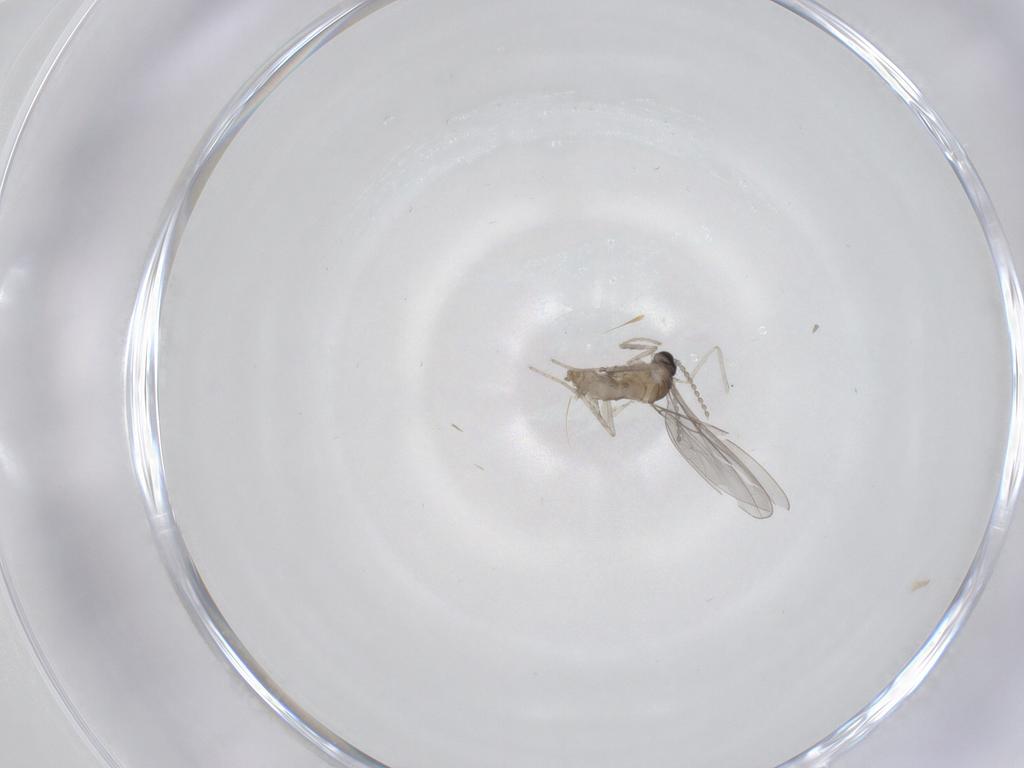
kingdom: Animalia
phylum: Arthropoda
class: Insecta
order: Diptera
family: Cecidomyiidae
